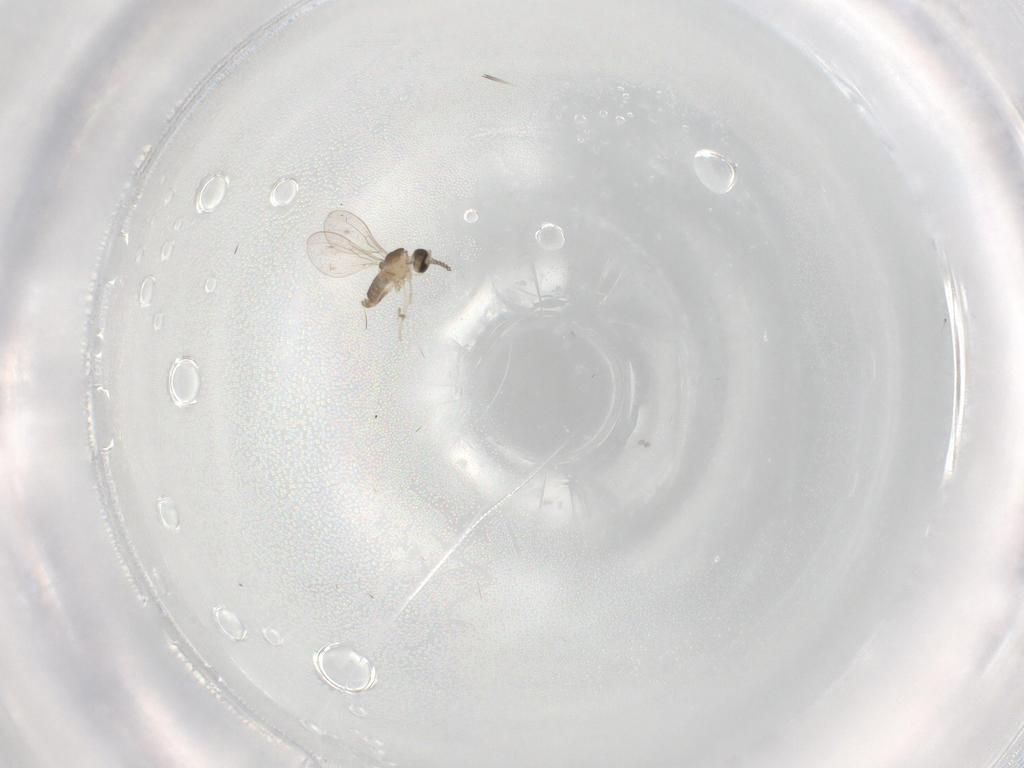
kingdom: Animalia
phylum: Arthropoda
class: Insecta
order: Diptera
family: Cecidomyiidae
